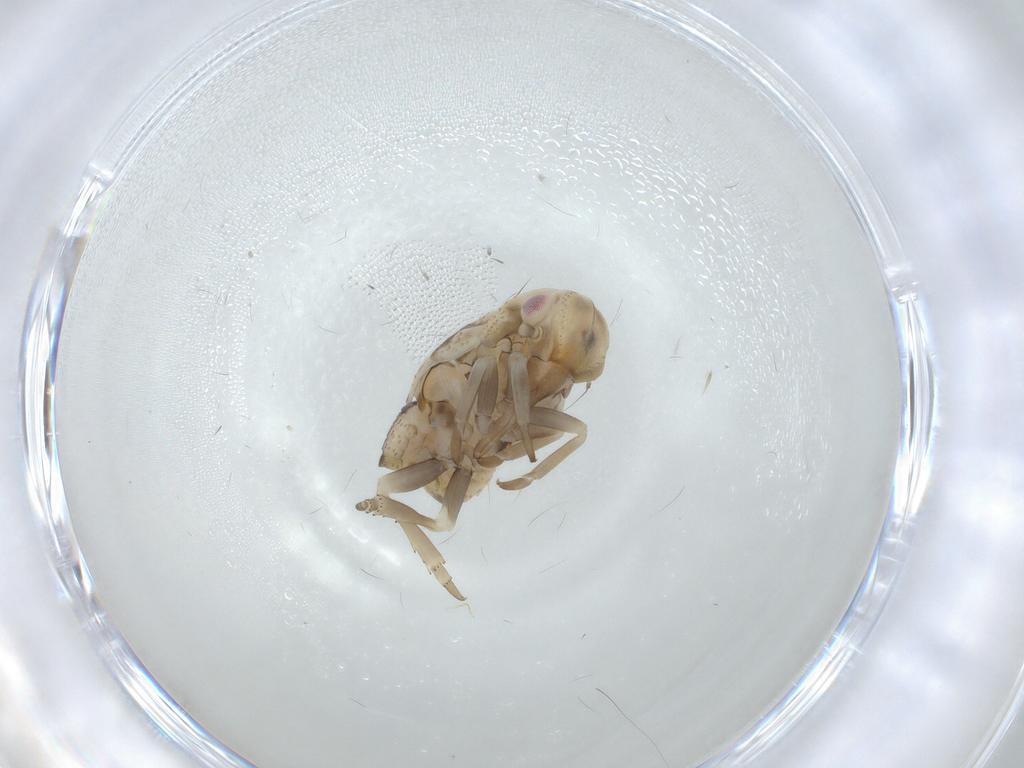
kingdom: Animalia
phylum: Arthropoda
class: Insecta
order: Hemiptera
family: Flatidae
